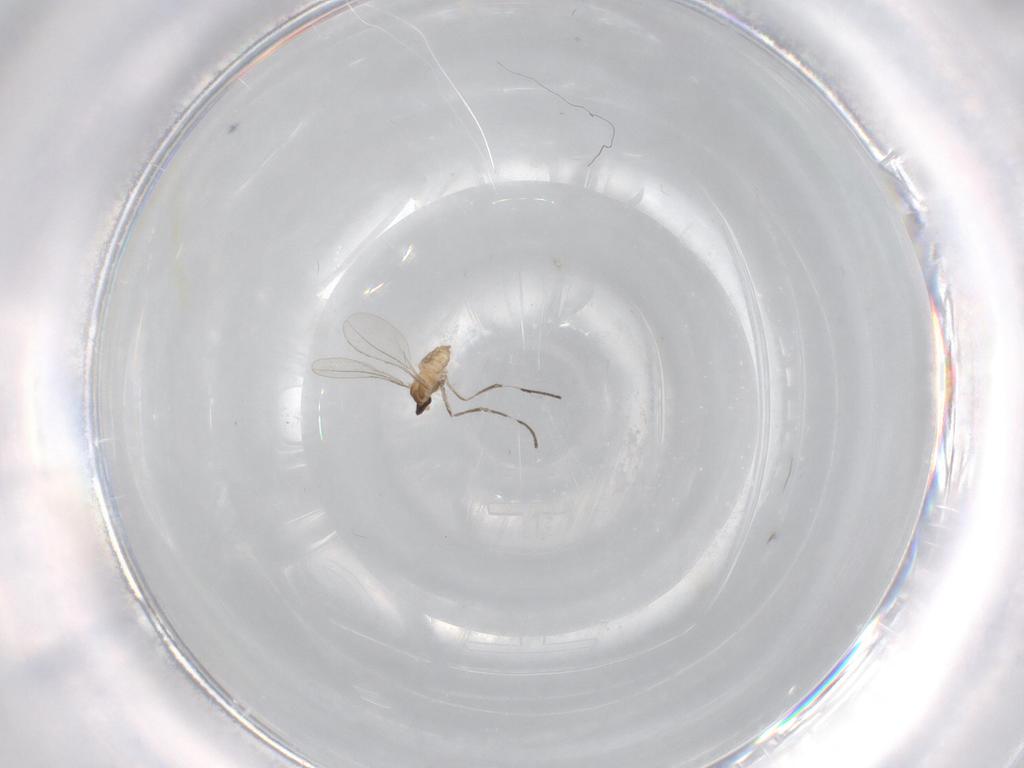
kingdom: Animalia
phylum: Arthropoda
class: Insecta
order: Diptera
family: Cecidomyiidae
